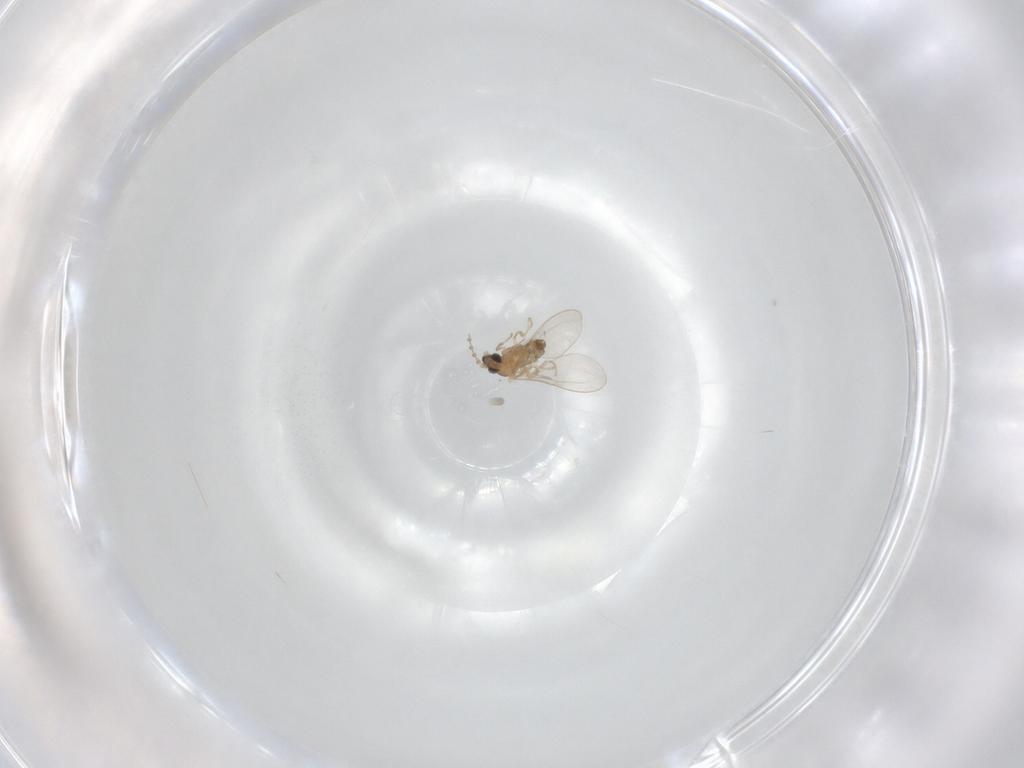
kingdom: Animalia
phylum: Arthropoda
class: Insecta
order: Diptera
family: Cecidomyiidae
